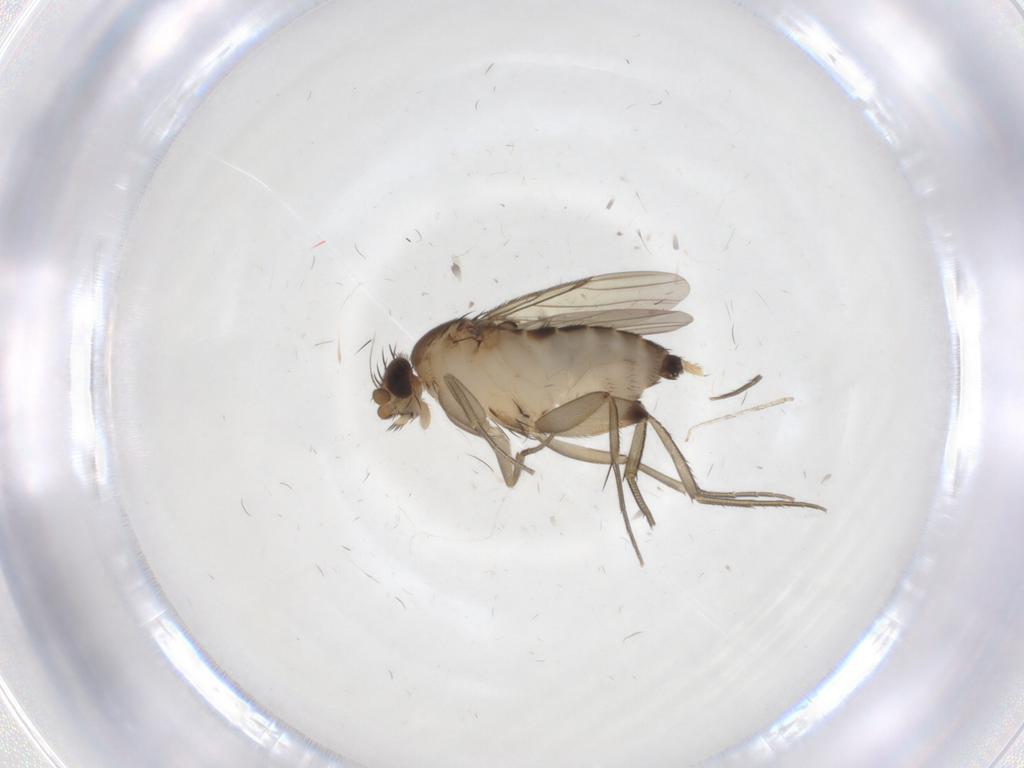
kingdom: Animalia
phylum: Arthropoda
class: Insecta
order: Diptera
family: Phoridae
